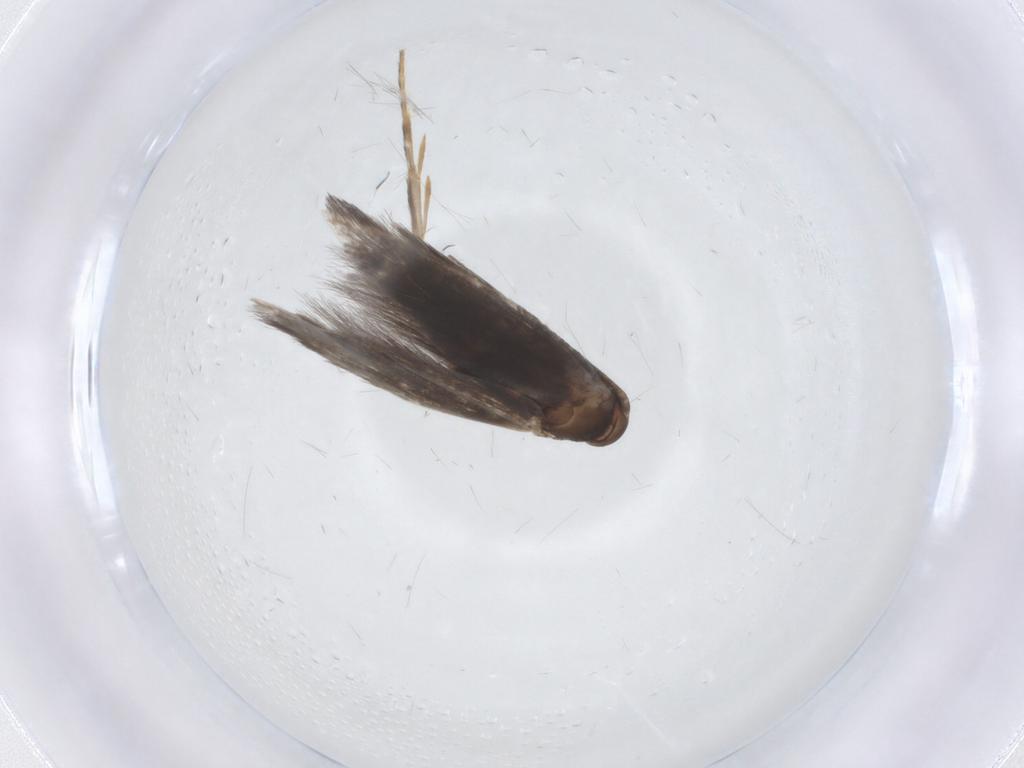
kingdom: Animalia
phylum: Arthropoda
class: Insecta
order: Lepidoptera
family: Elachistidae
